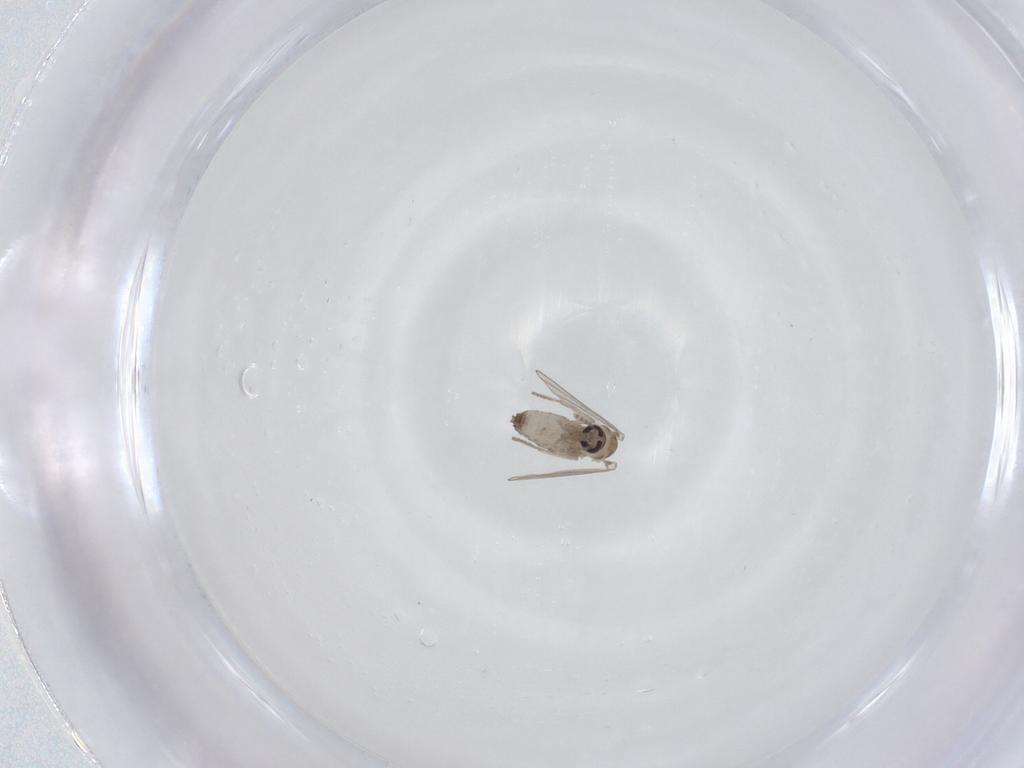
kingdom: Animalia
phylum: Arthropoda
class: Insecta
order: Diptera
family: Psychodidae
